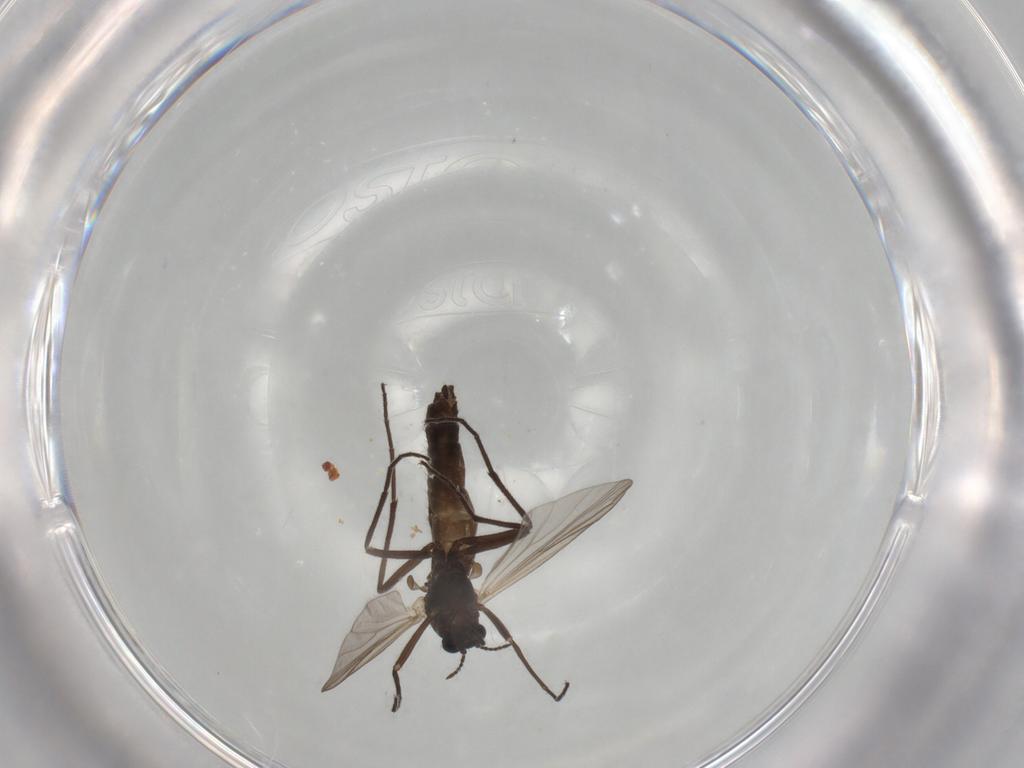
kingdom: Animalia
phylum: Arthropoda
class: Insecta
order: Diptera
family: Chironomidae
